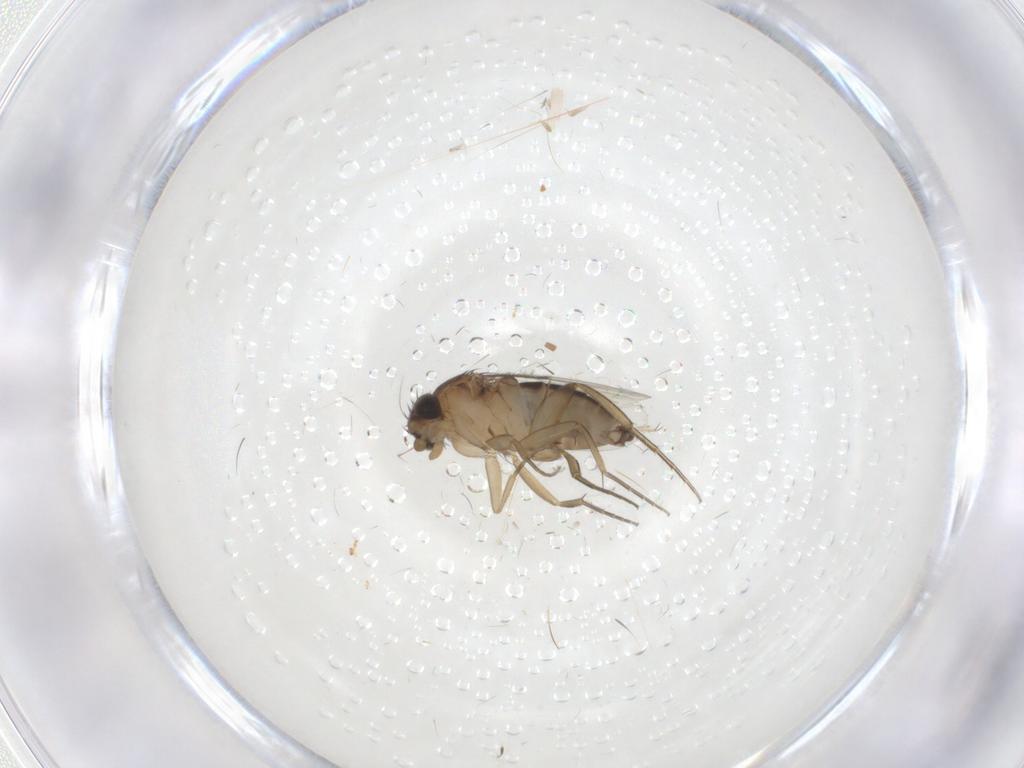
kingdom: Animalia
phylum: Arthropoda
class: Insecta
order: Diptera
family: Phoridae
